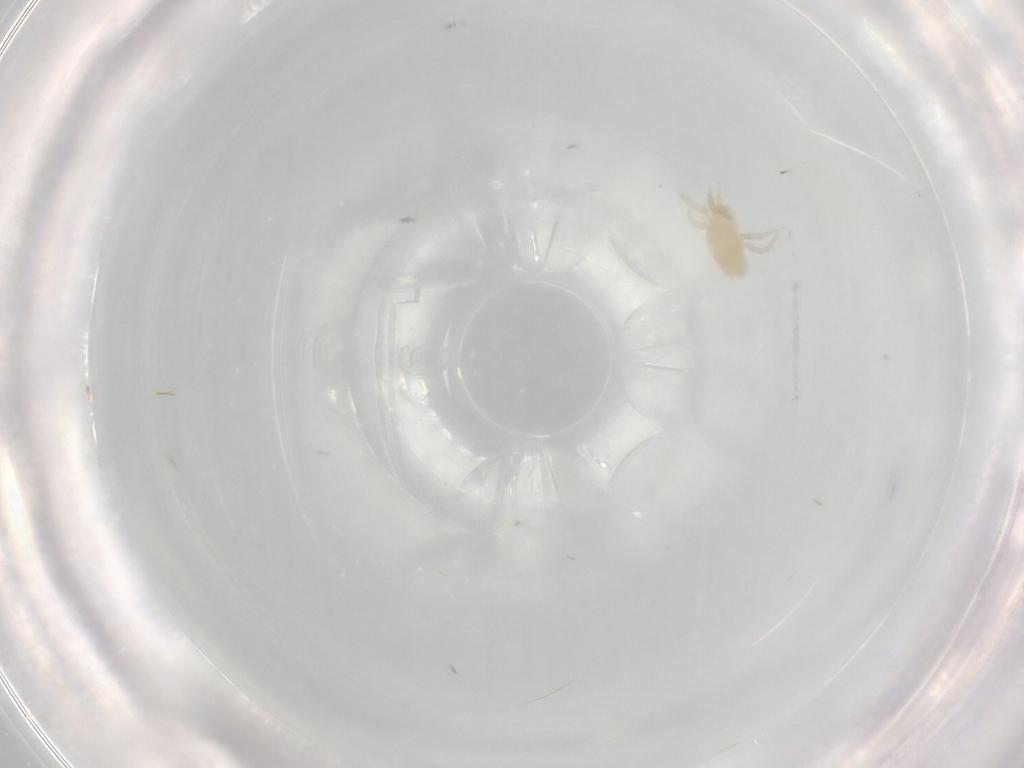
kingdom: Animalia
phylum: Arthropoda
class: Arachnida
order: Mesostigmata
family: Melicharidae
